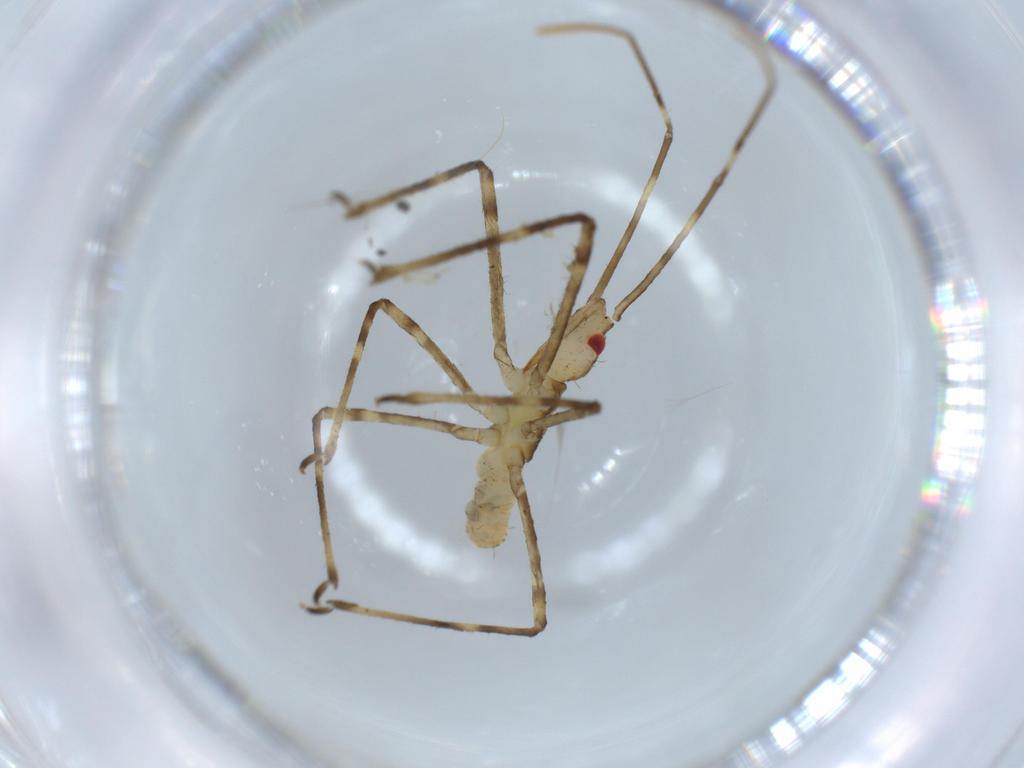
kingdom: Animalia
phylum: Arthropoda
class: Insecta
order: Hemiptera
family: Reduviidae
